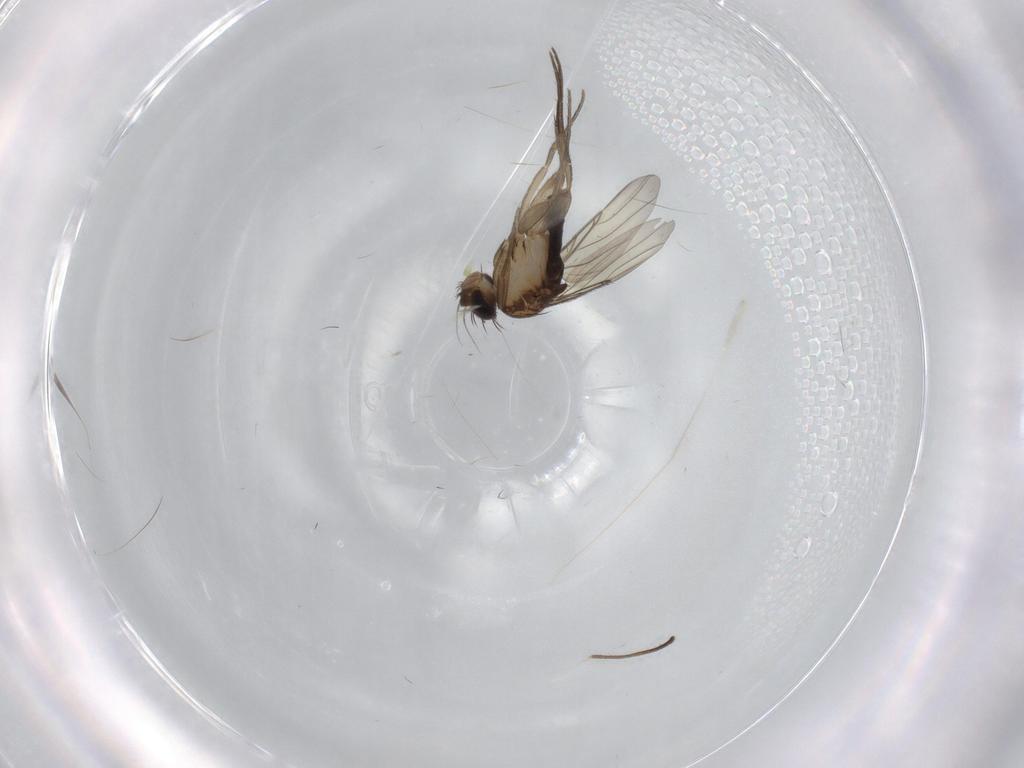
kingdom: Animalia
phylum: Arthropoda
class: Insecta
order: Diptera
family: Phoridae
